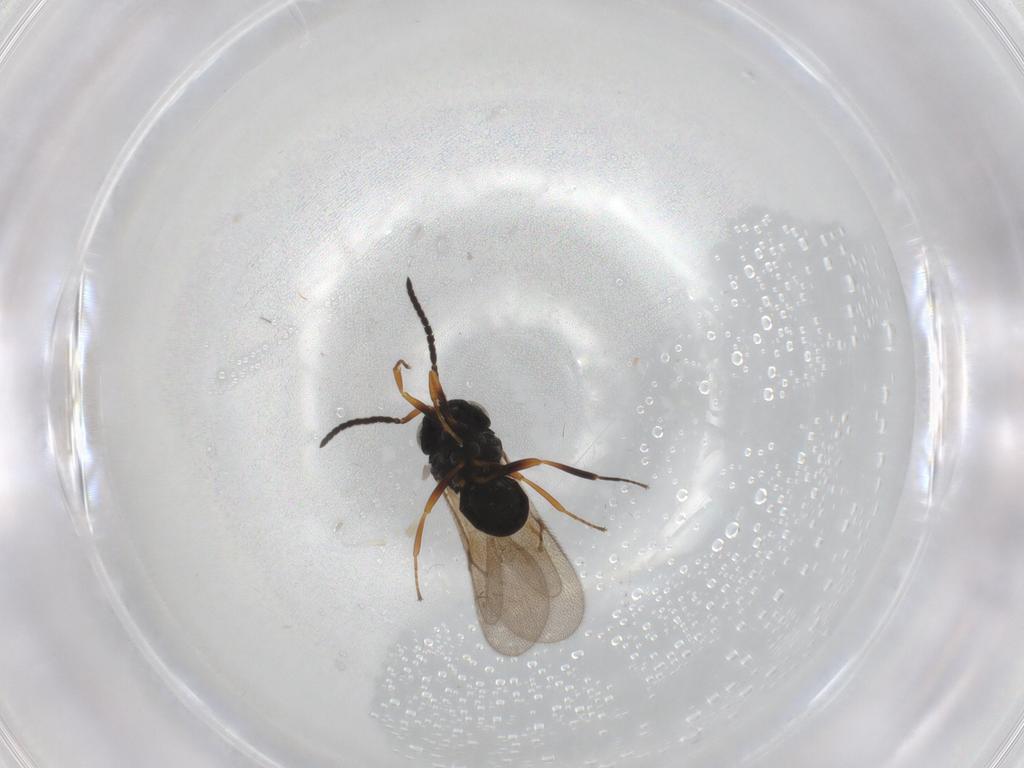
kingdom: Animalia
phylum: Arthropoda
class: Insecta
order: Hymenoptera
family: Scelionidae
